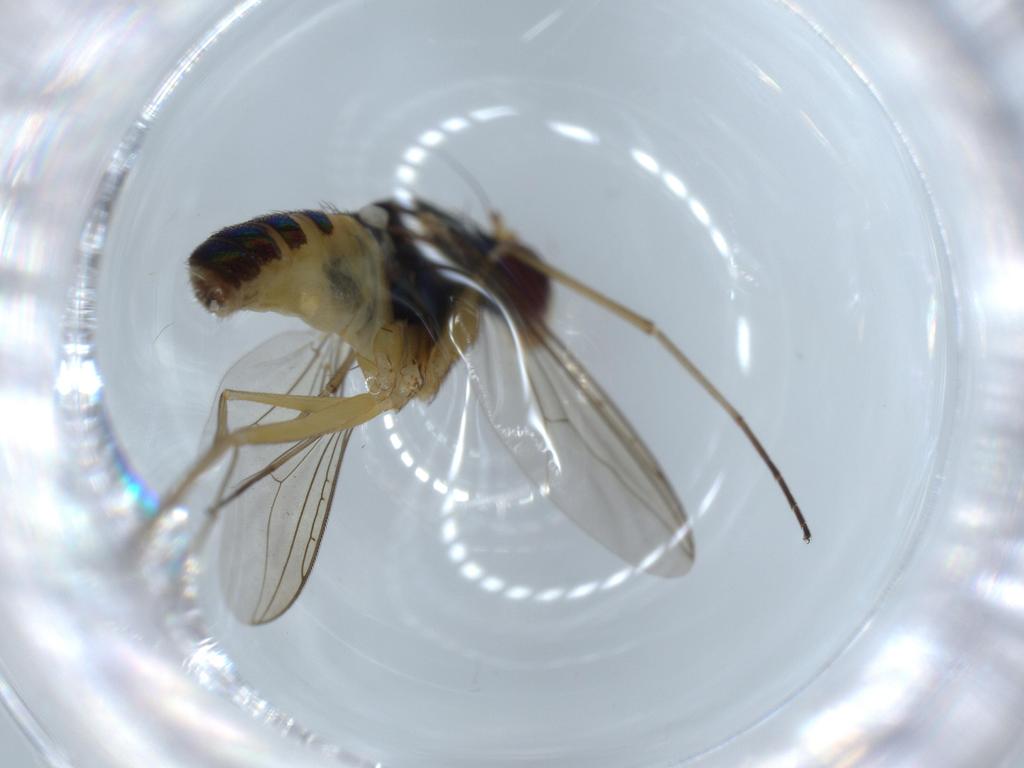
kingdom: Animalia
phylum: Arthropoda
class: Insecta
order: Diptera
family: Dolichopodidae
